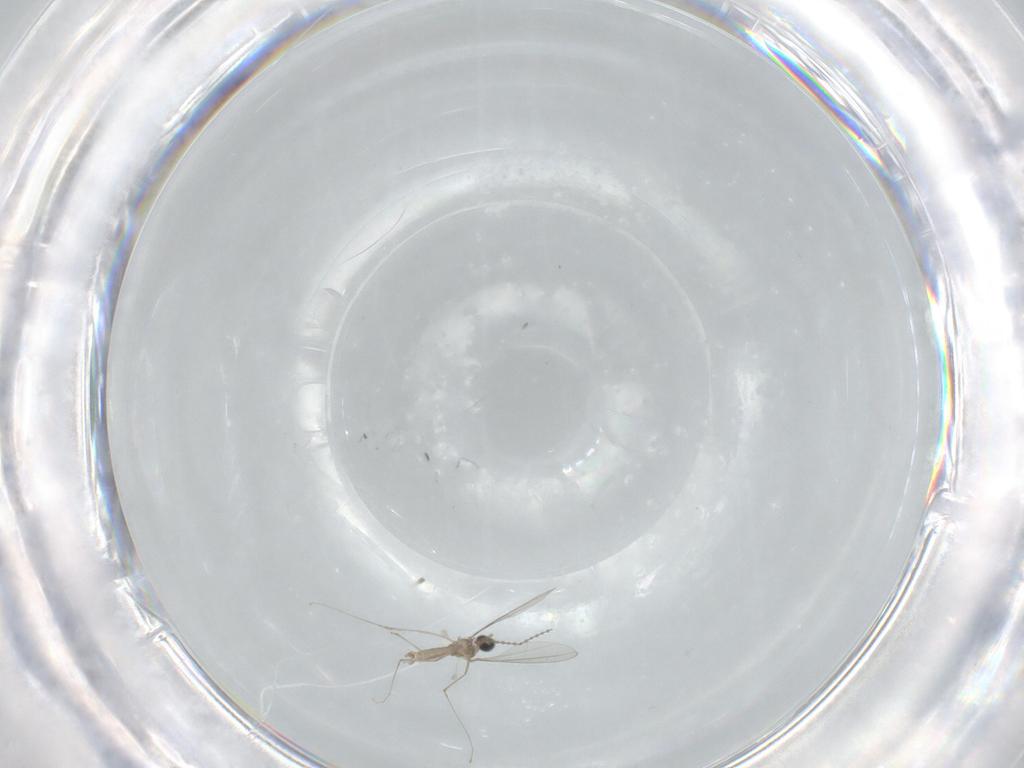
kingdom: Animalia
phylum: Arthropoda
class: Insecta
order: Diptera
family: Cecidomyiidae
